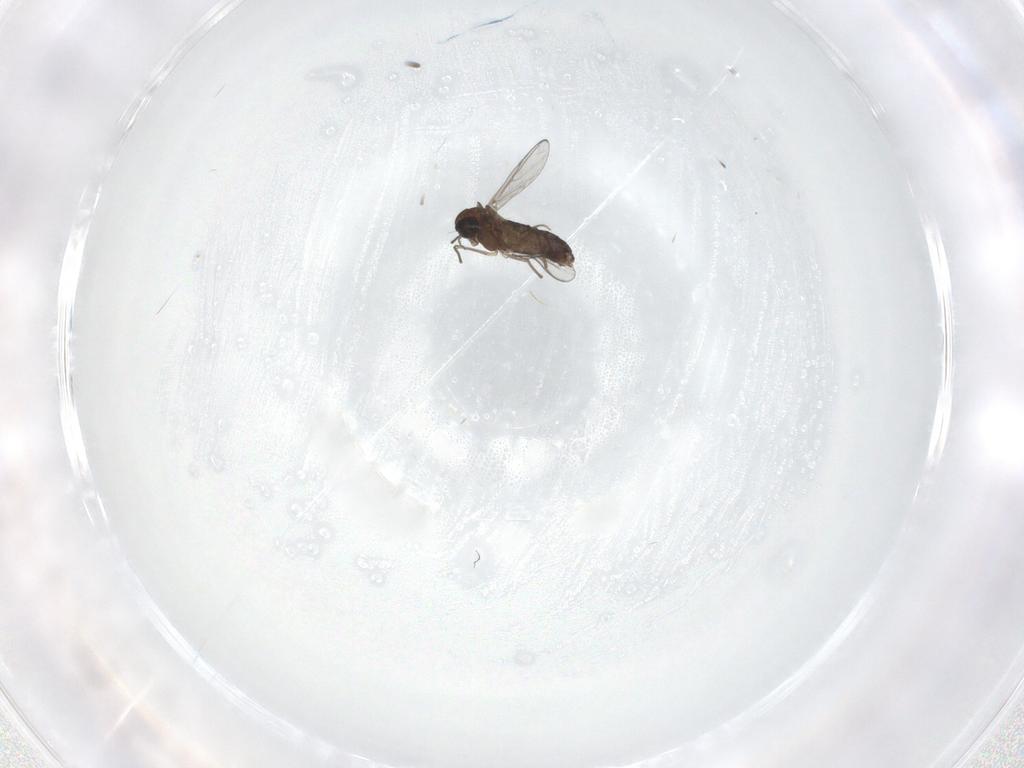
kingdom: Animalia
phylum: Arthropoda
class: Insecta
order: Diptera
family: Chironomidae
